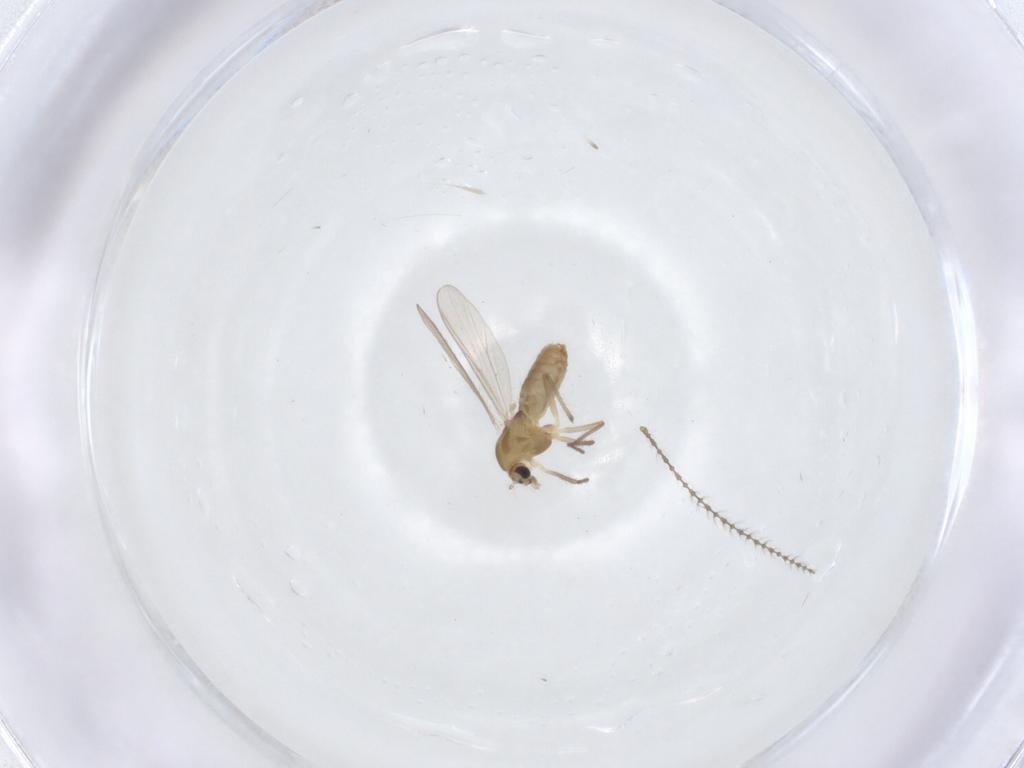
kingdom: Animalia
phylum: Arthropoda
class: Insecta
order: Diptera
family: Chironomidae
